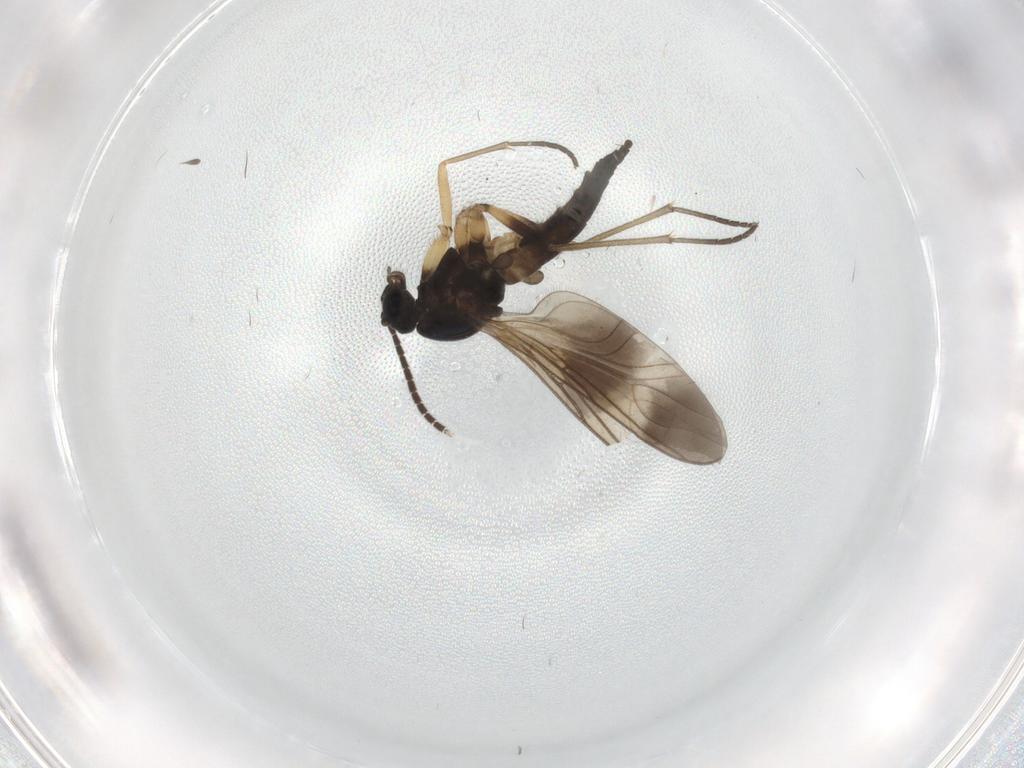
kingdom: Animalia
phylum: Arthropoda
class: Insecta
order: Diptera
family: Sciaridae
